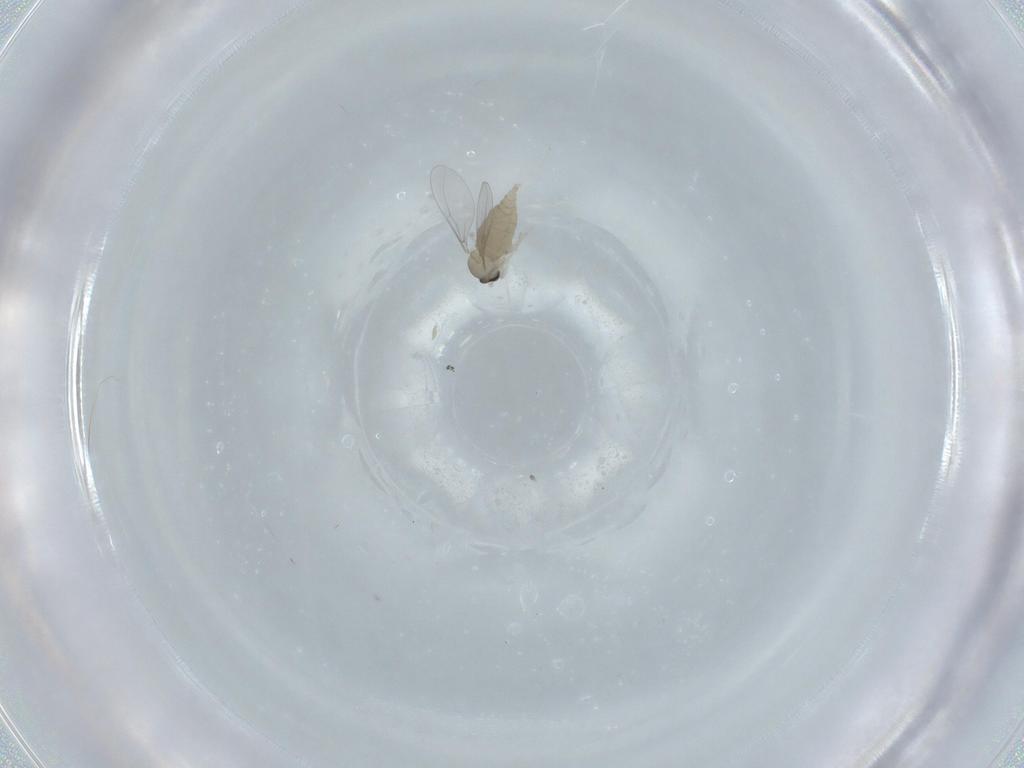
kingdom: Animalia
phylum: Arthropoda
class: Insecta
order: Diptera
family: Cecidomyiidae
